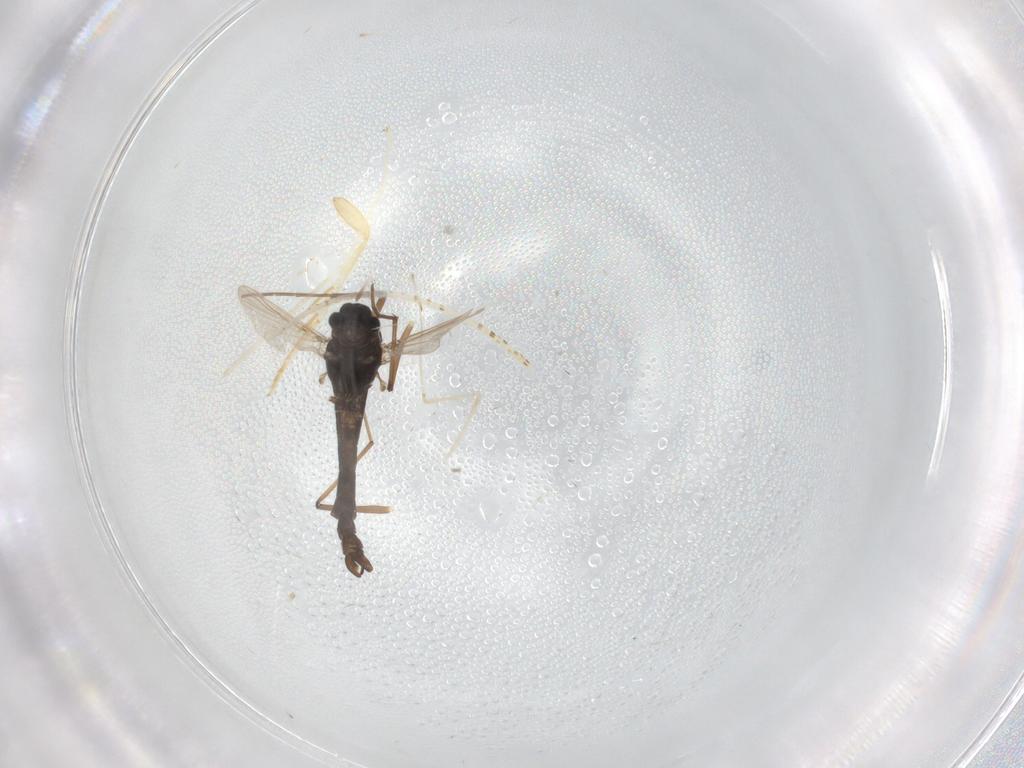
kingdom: Animalia
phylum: Arthropoda
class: Insecta
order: Diptera
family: Chironomidae
